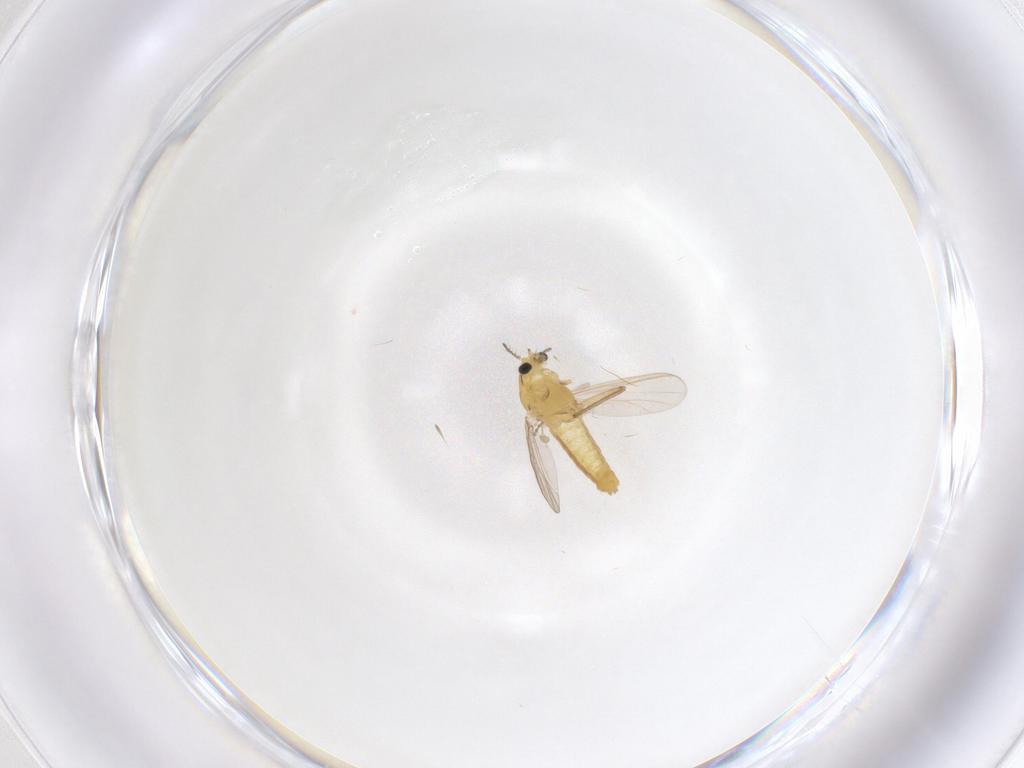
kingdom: Animalia
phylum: Arthropoda
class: Insecta
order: Diptera
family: Chironomidae
